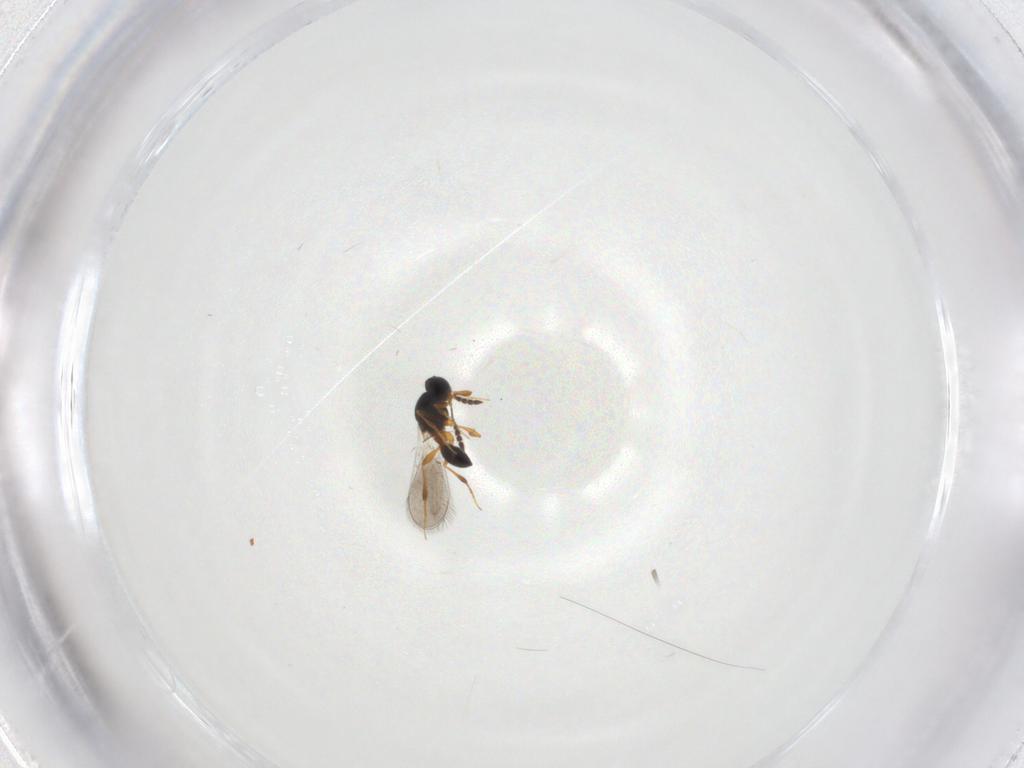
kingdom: Animalia
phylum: Arthropoda
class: Insecta
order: Hymenoptera
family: Platygastridae
